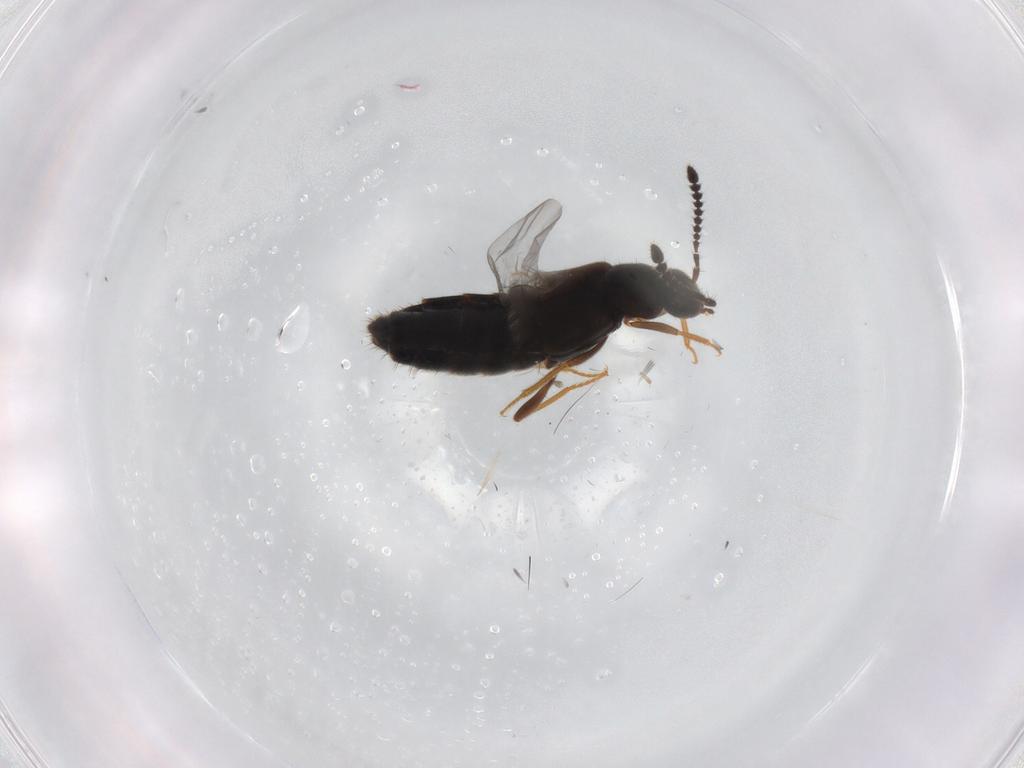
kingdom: Animalia
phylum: Arthropoda
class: Insecta
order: Coleoptera
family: Staphylinidae
